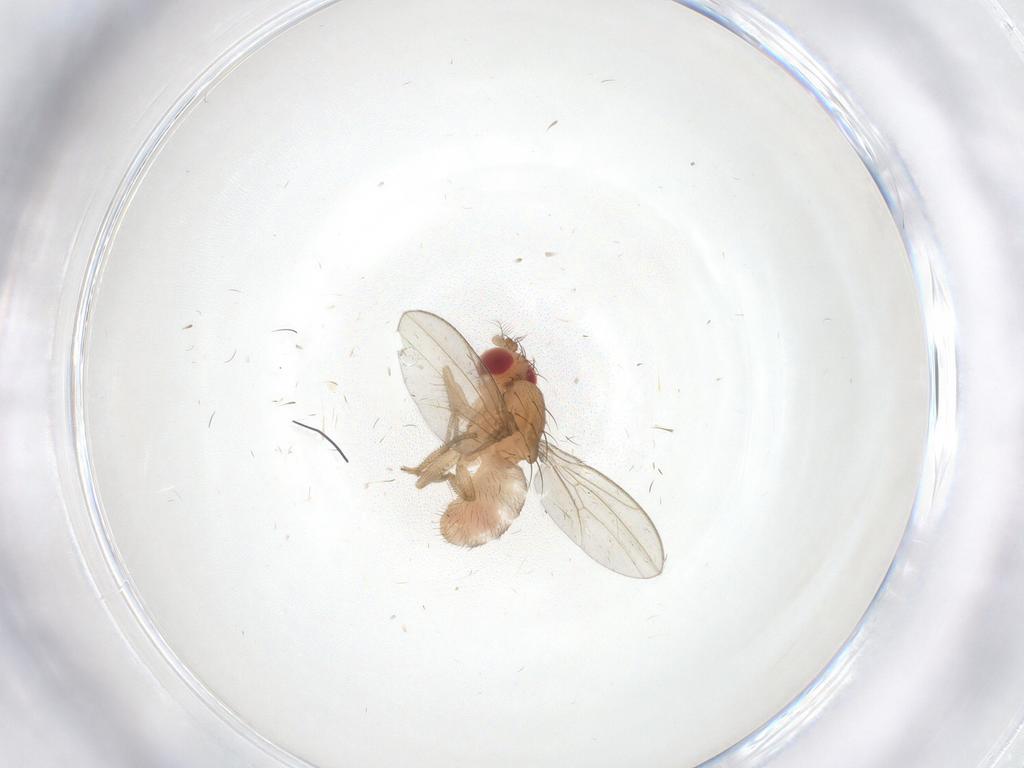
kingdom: Animalia
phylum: Arthropoda
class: Insecta
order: Diptera
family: Drosophilidae
